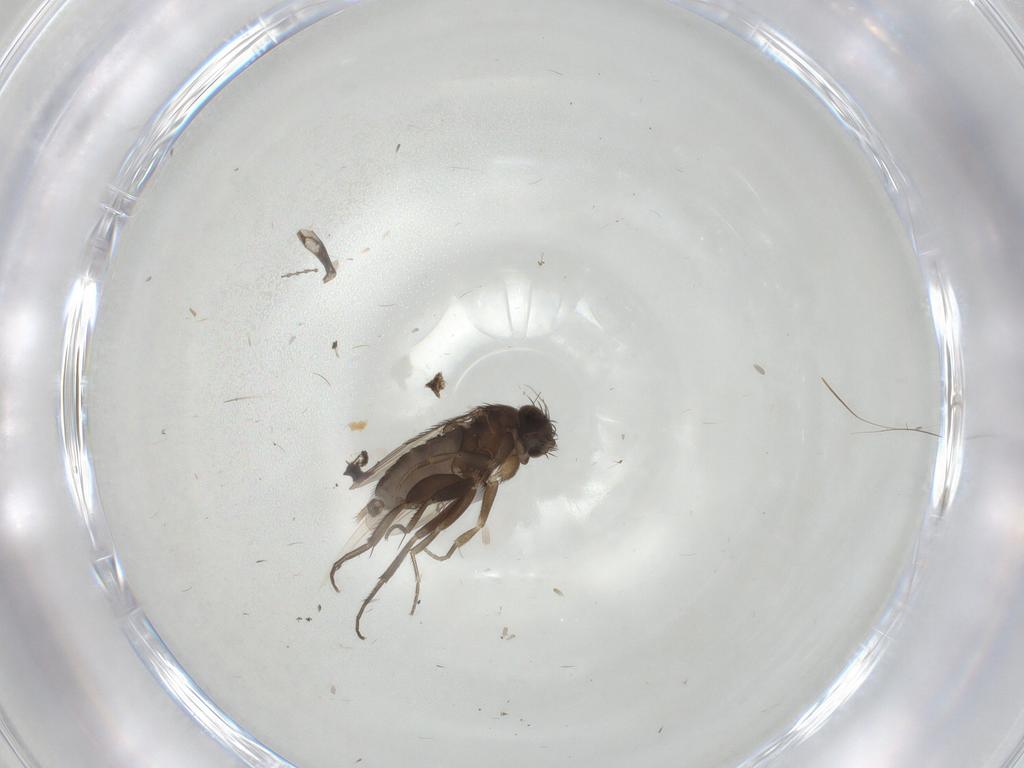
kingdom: Animalia
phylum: Arthropoda
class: Insecta
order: Diptera
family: Phoridae
